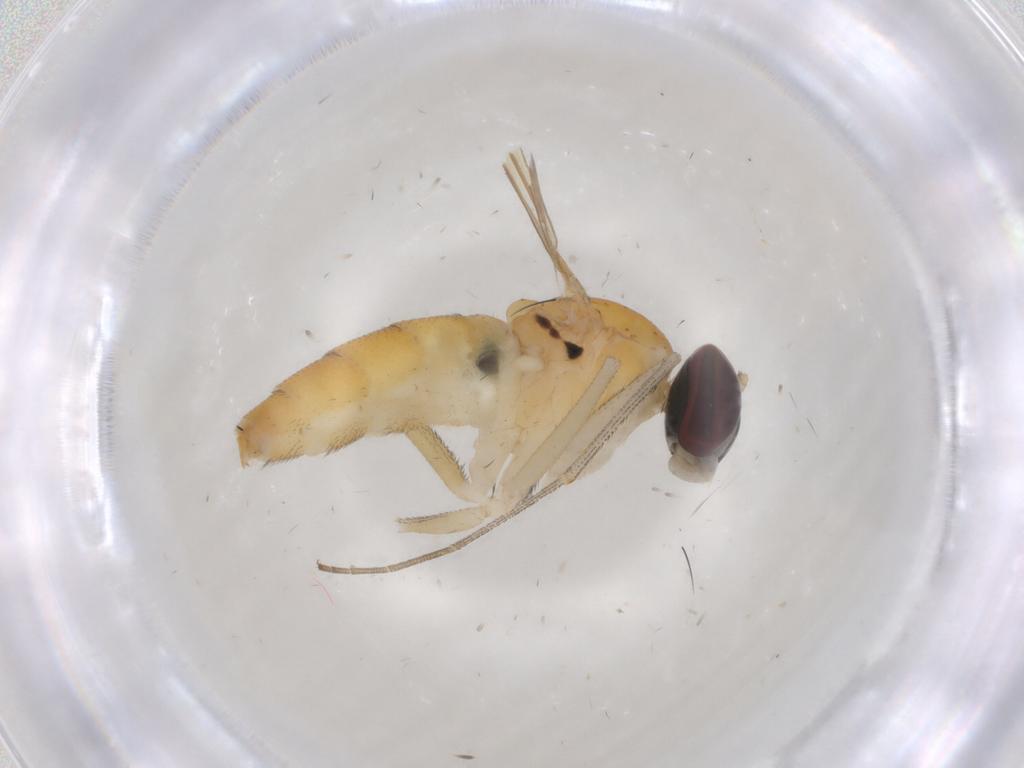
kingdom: Animalia
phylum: Arthropoda
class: Insecta
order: Diptera
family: Dolichopodidae
